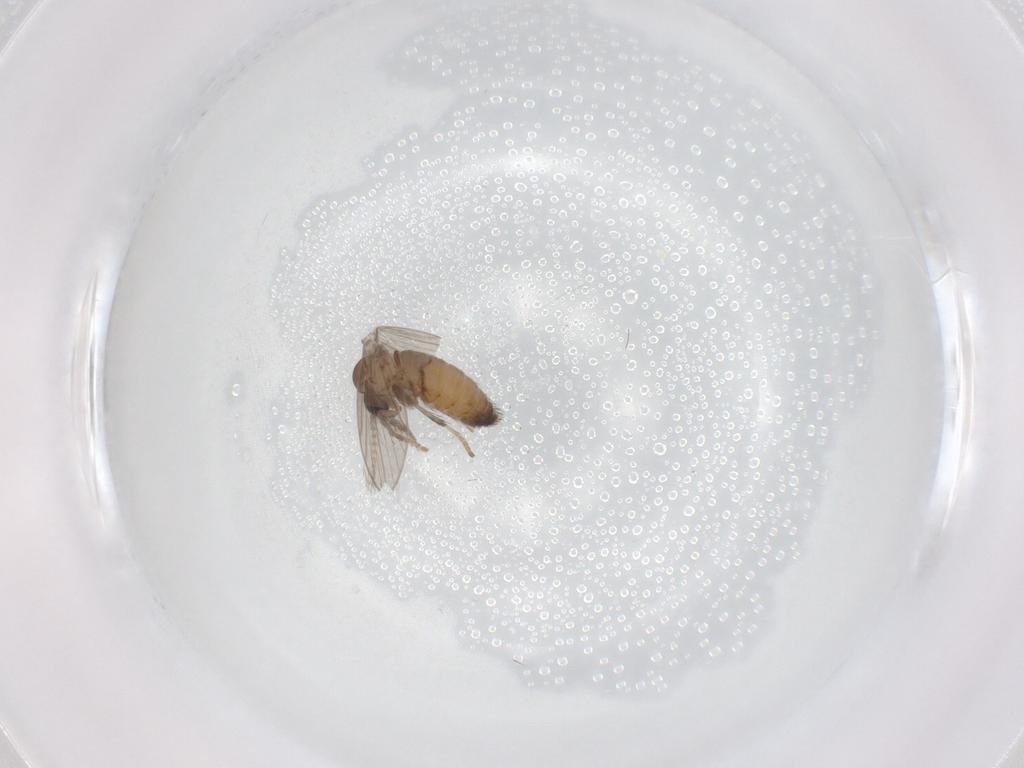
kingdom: Animalia
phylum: Arthropoda
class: Insecta
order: Diptera
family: Psychodidae
